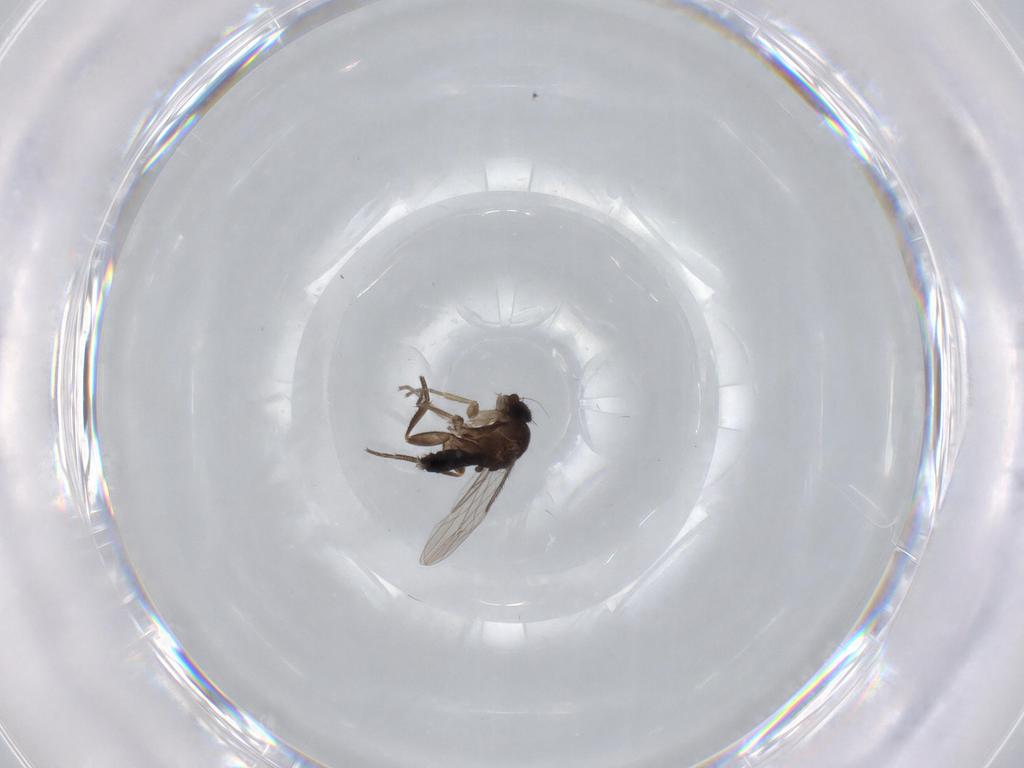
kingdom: Animalia
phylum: Arthropoda
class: Insecta
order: Diptera
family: Phoridae
